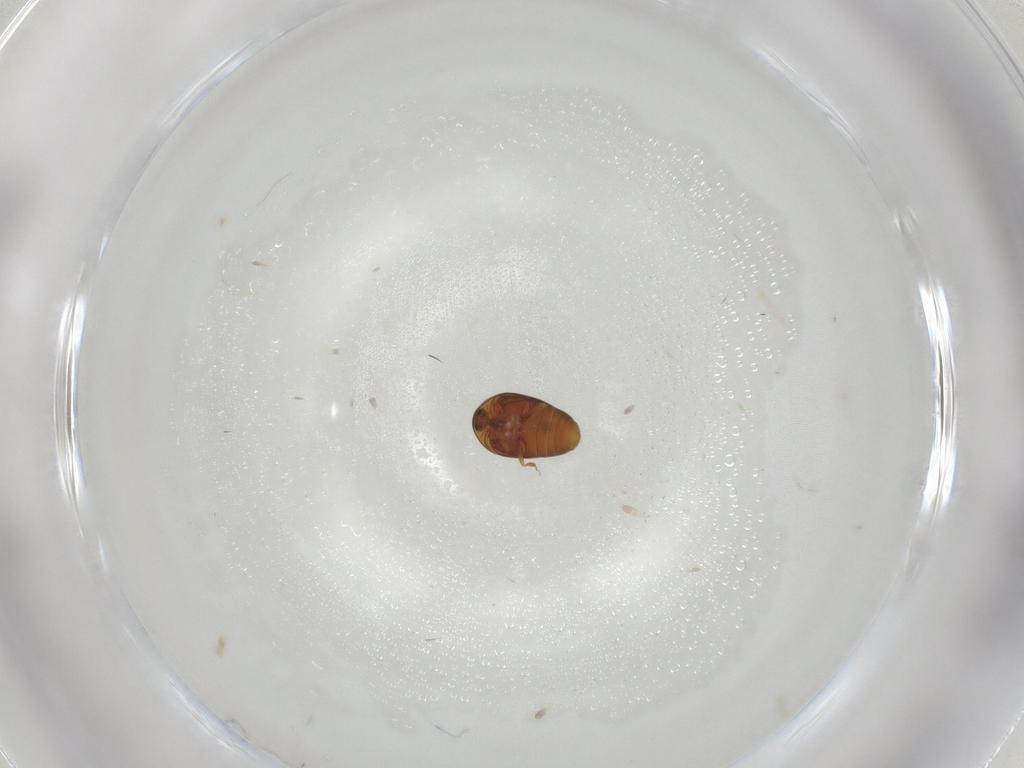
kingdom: Animalia
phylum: Arthropoda
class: Insecta
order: Coleoptera
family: Corylophidae
